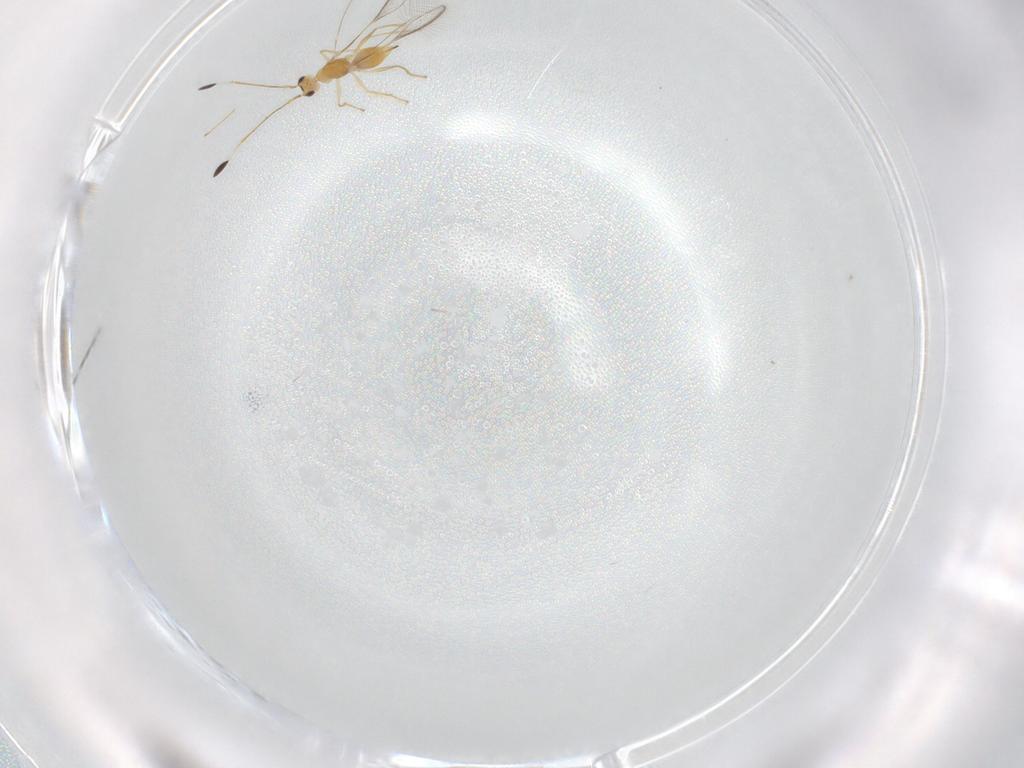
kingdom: Animalia
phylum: Arthropoda
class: Insecta
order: Hymenoptera
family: Mymaridae
